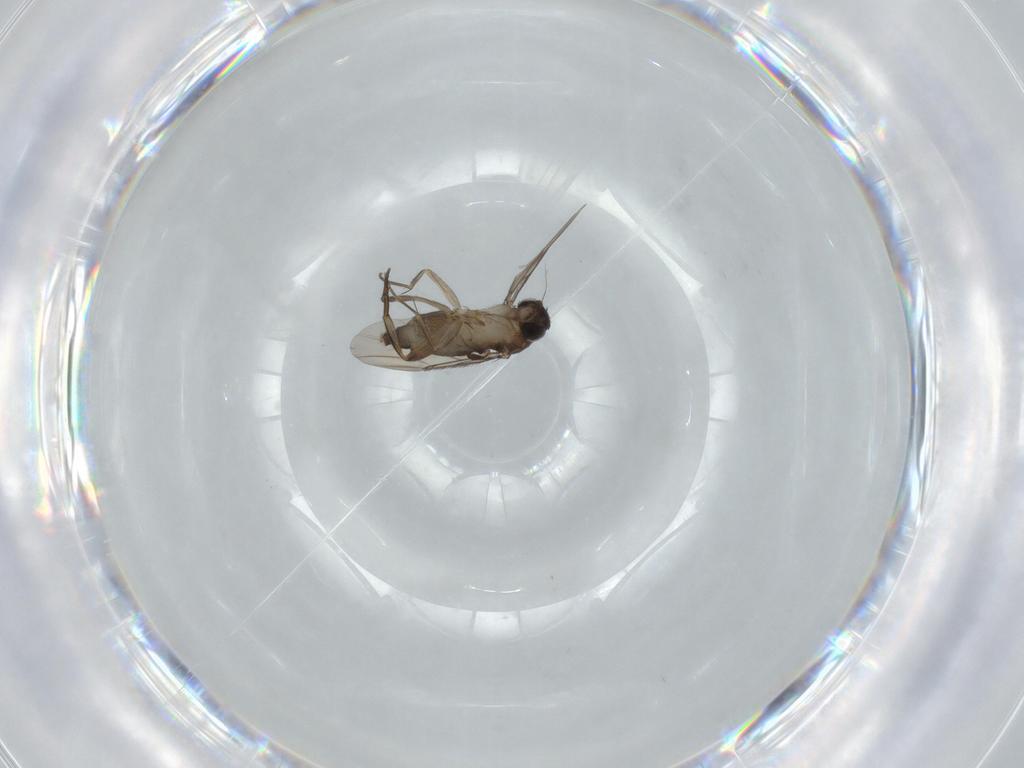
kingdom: Animalia
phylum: Arthropoda
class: Insecta
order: Diptera
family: Phoridae
